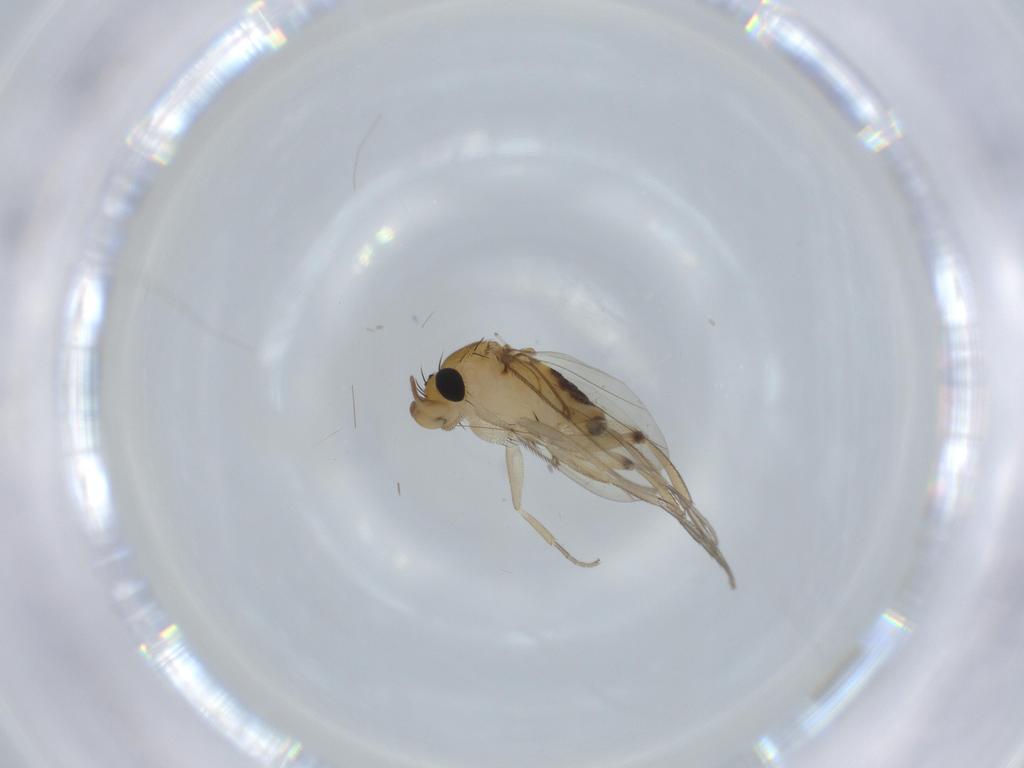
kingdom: Animalia
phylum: Arthropoda
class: Insecta
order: Diptera
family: Phoridae
